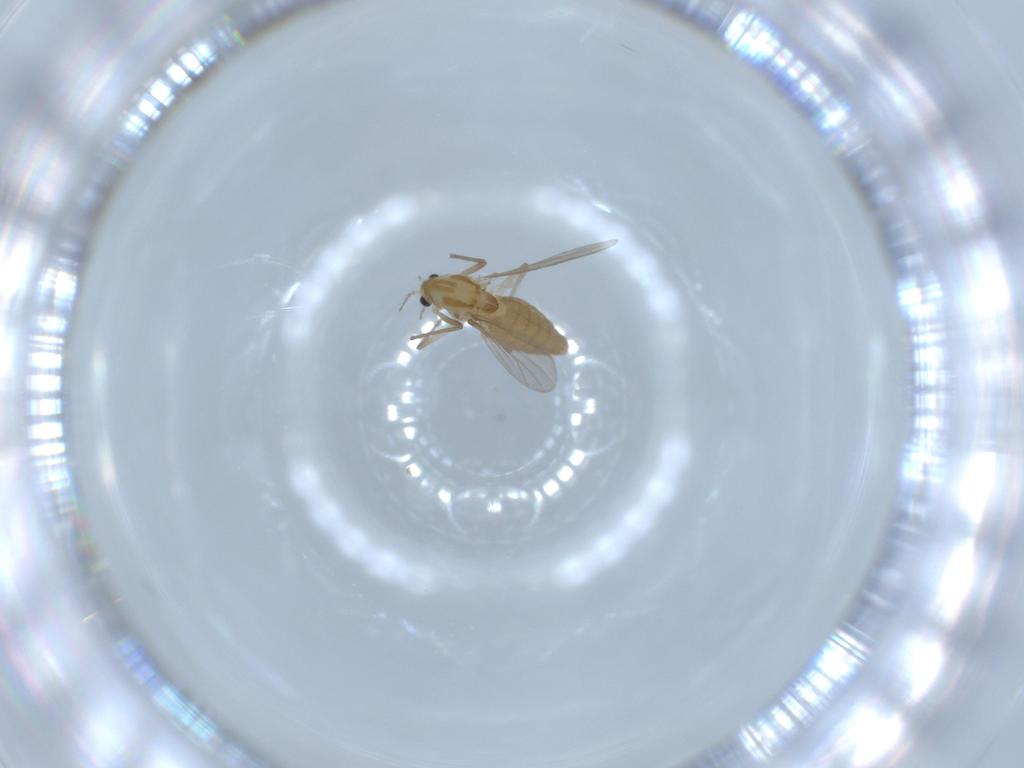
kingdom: Animalia
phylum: Arthropoda
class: Insecta
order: Diptera
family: Chironomidae
